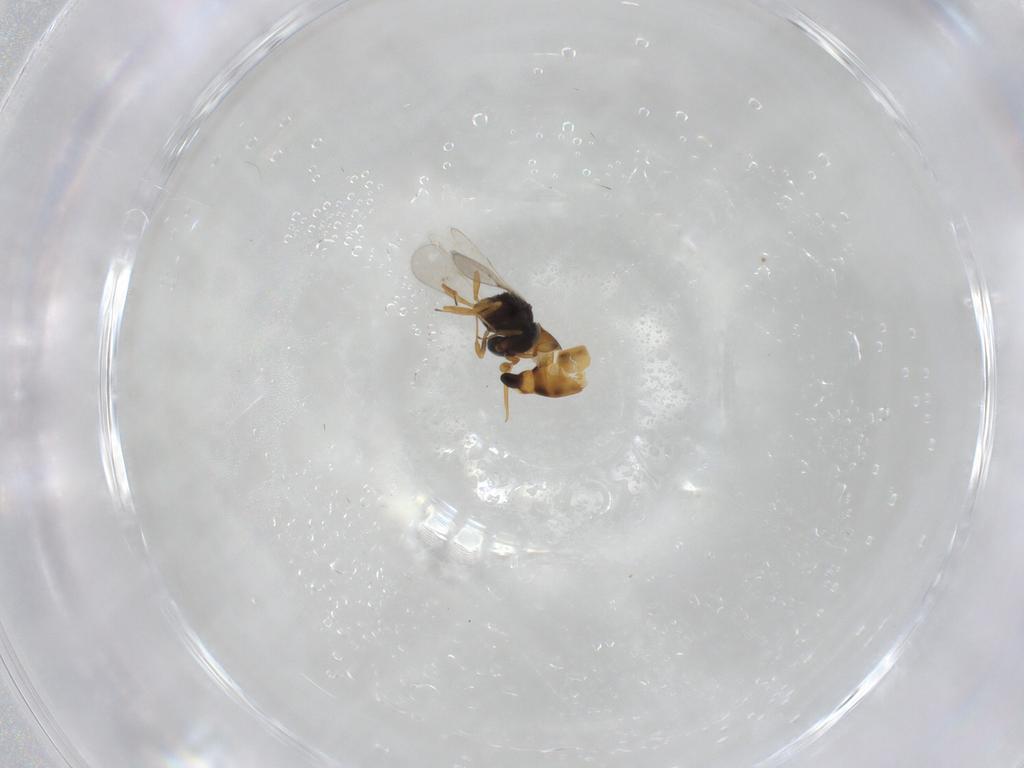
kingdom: Animalia
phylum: Arthropoda
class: Insecta
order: Hymenoptera
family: Scelionidae
